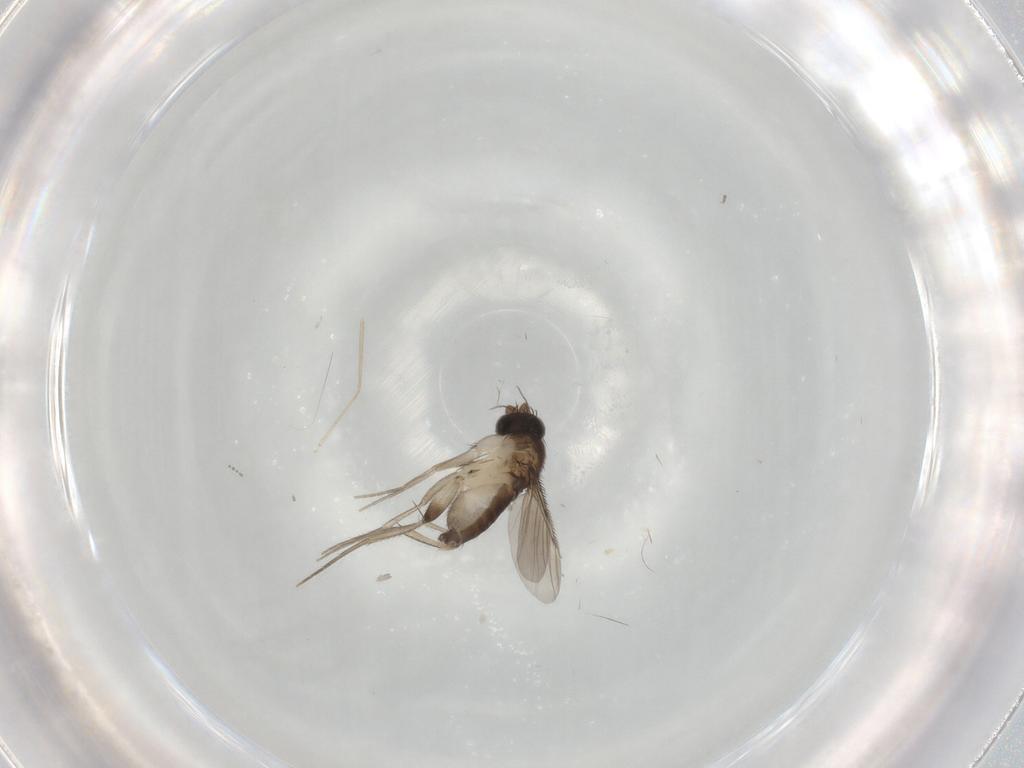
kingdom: Animalia
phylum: Arthropoda
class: Insecta
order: Diptera
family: Phoridae
